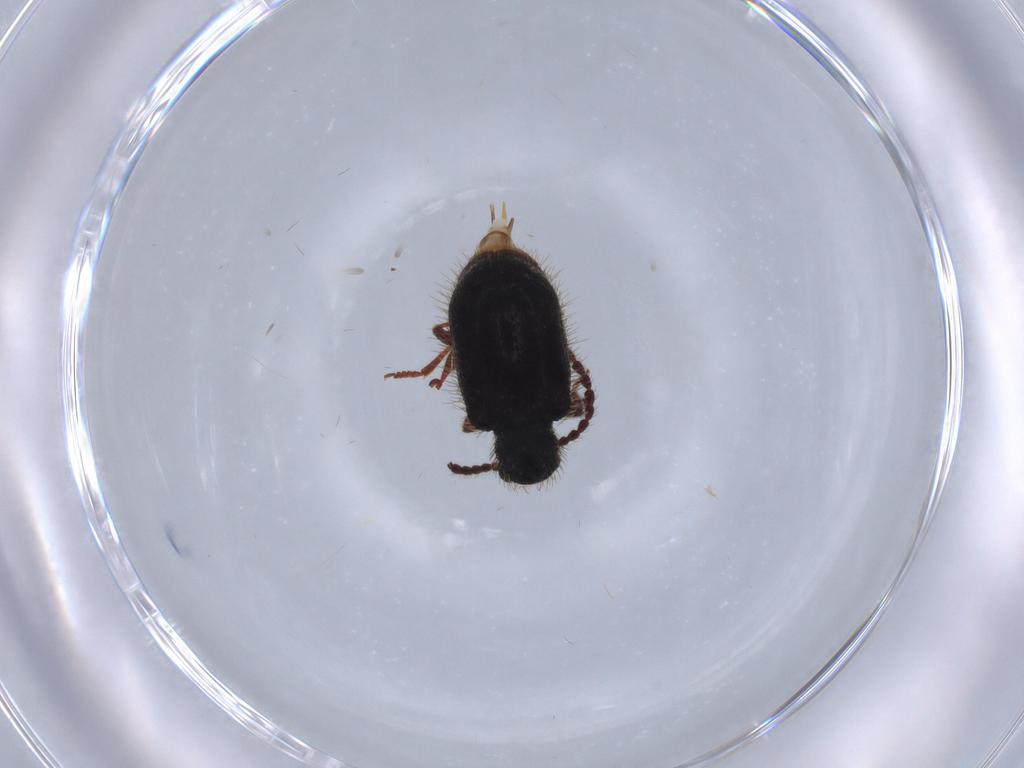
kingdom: Animalia
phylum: Arthropoda
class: Insecta
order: Coleoptera
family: Ptinidae
